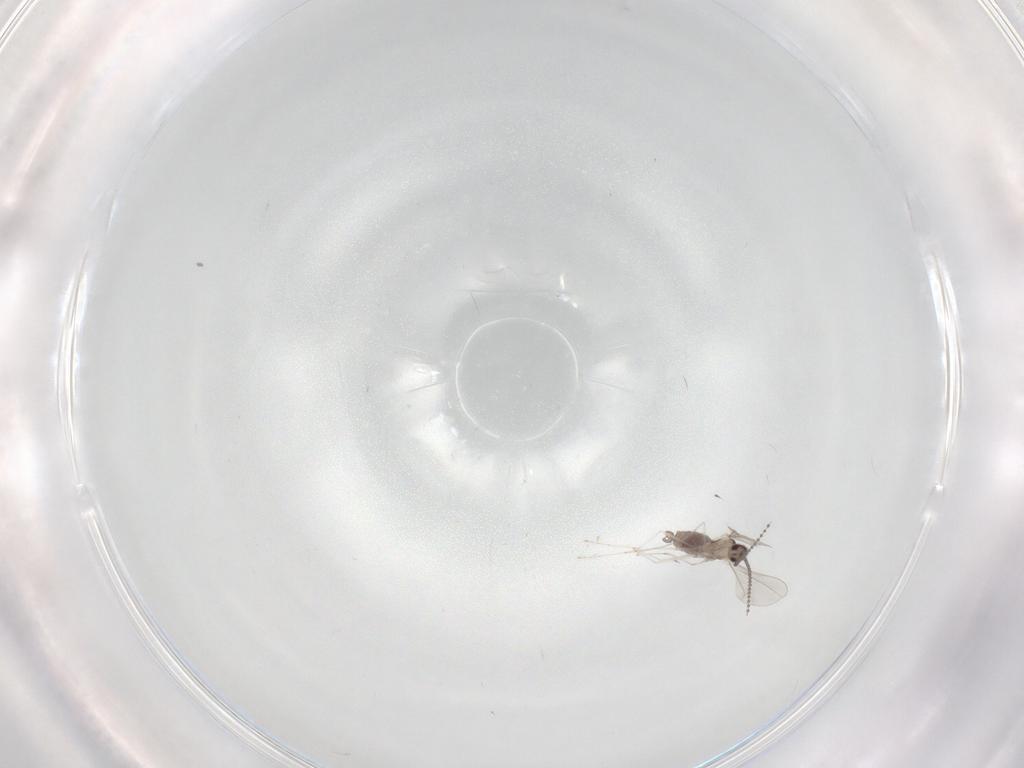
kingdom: Animalia
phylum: Arthropoda
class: Insecta
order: Diptera
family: Cecidomyiidae
